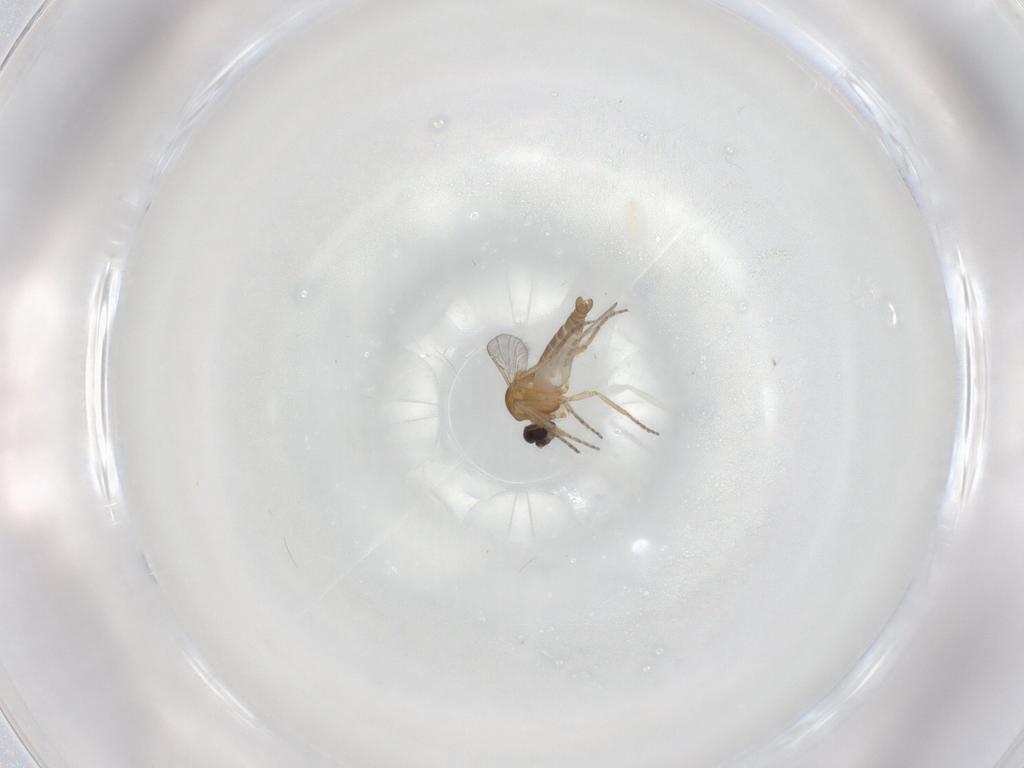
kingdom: Animalia
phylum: Arthropoda
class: Insecta
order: Diptera
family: Ceratopogonidae
